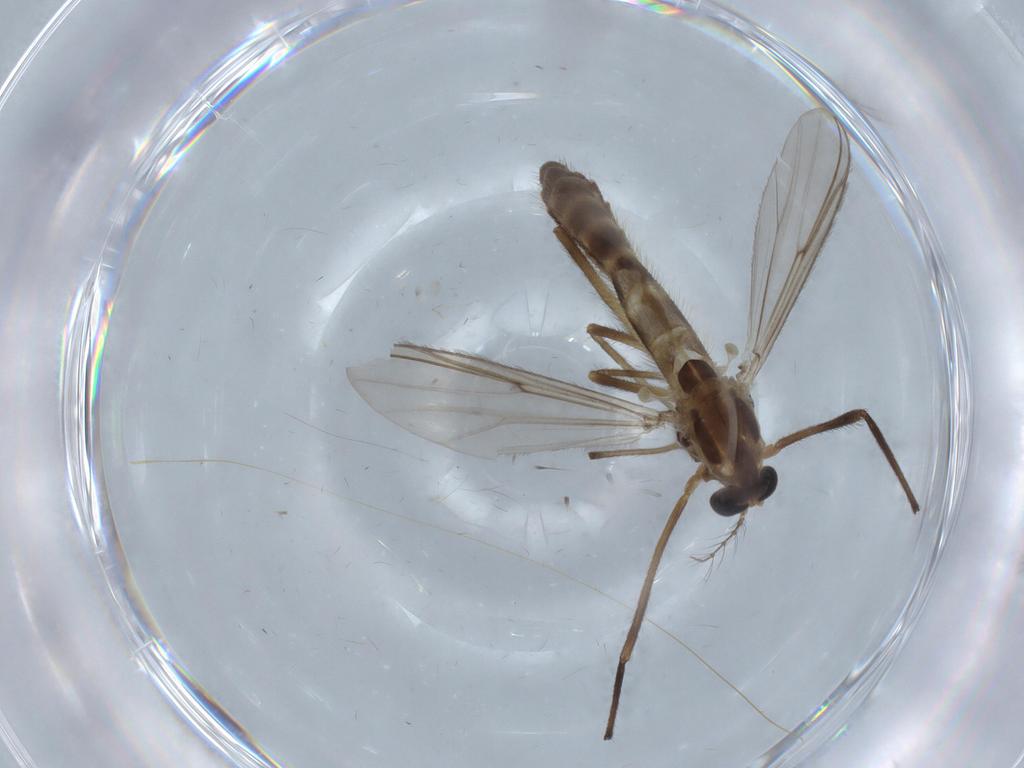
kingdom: Animalia
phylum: Arthropoda
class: Insecta
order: Diptera
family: Chironomidae
